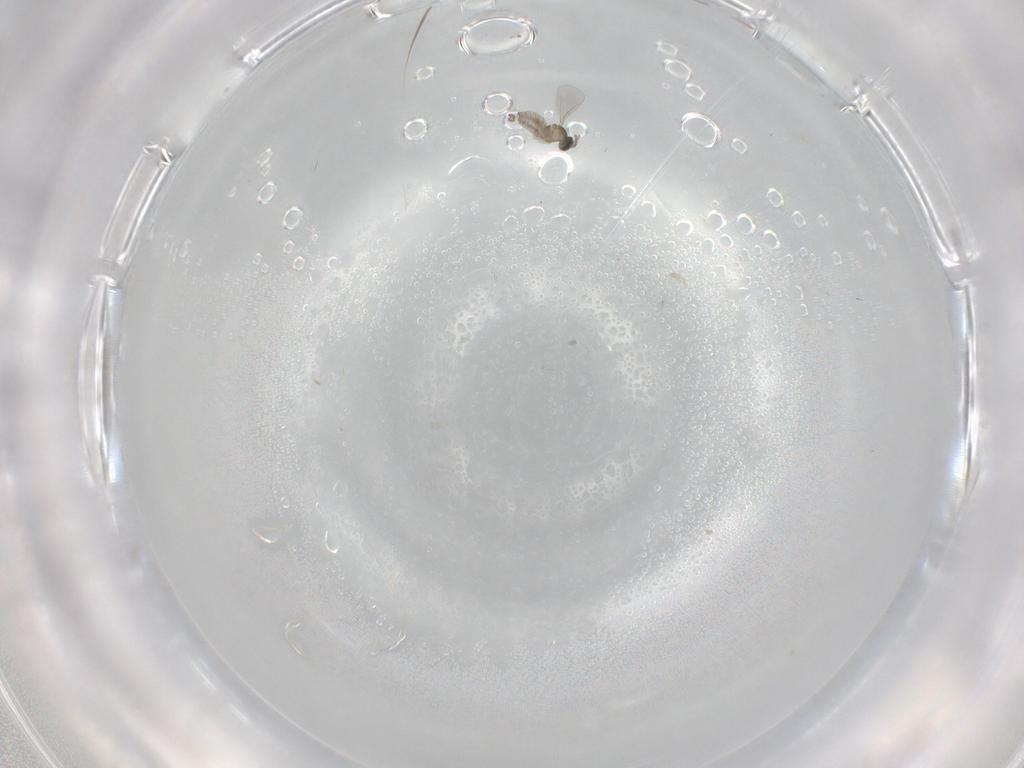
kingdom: Animalia
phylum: Arthropoda
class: Insecta
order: Diptera
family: Cecidomyiidae
